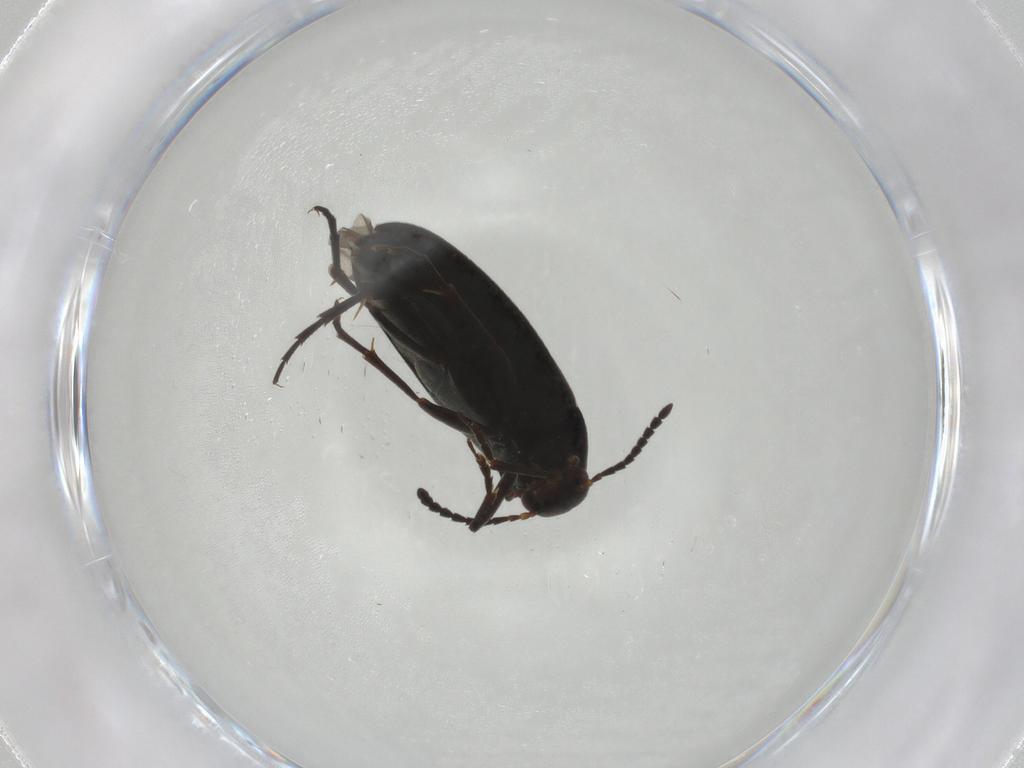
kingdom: Animalia
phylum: Arthropoda
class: Insecta
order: Coleoptera
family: Scraptiidae
